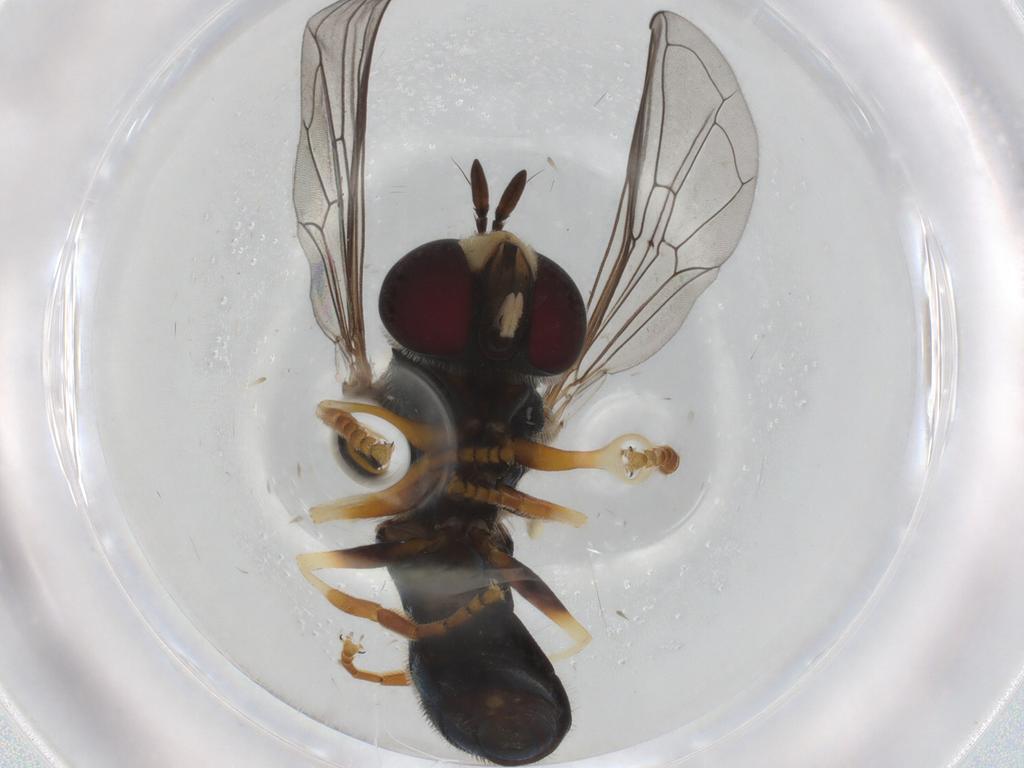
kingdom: Animalia
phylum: Arthropoda
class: Insecta
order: Diptera
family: Syrphidae
